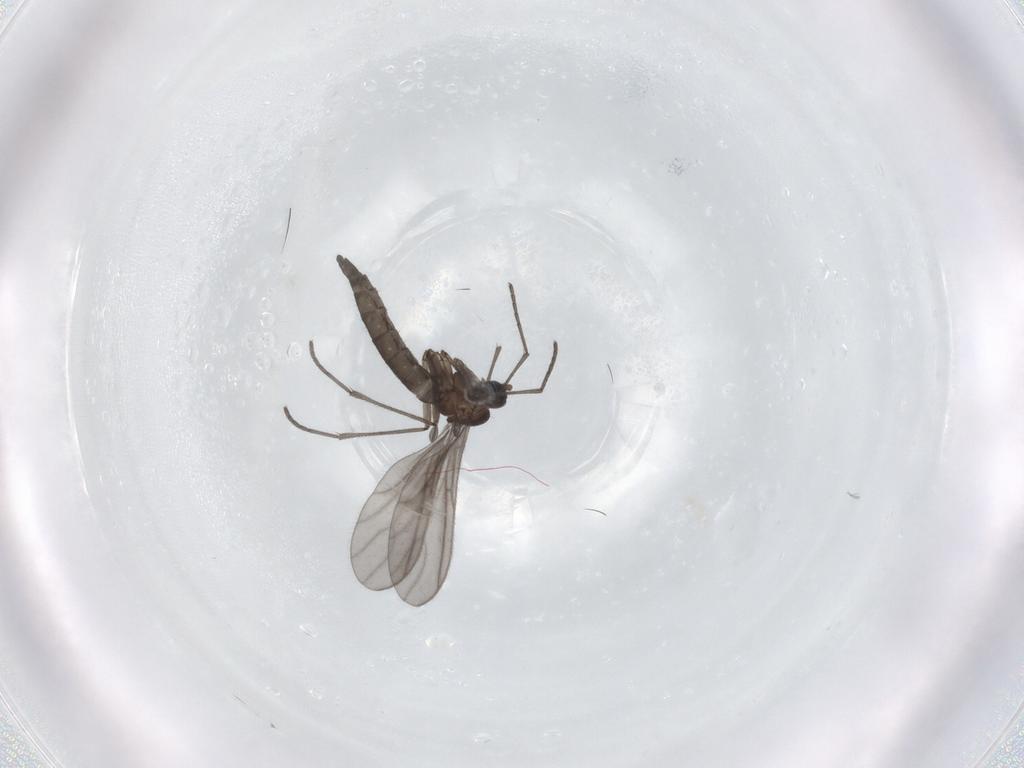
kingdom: Animalia
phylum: Arthropoda
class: Insecta
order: Diptera
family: Sciaridae
